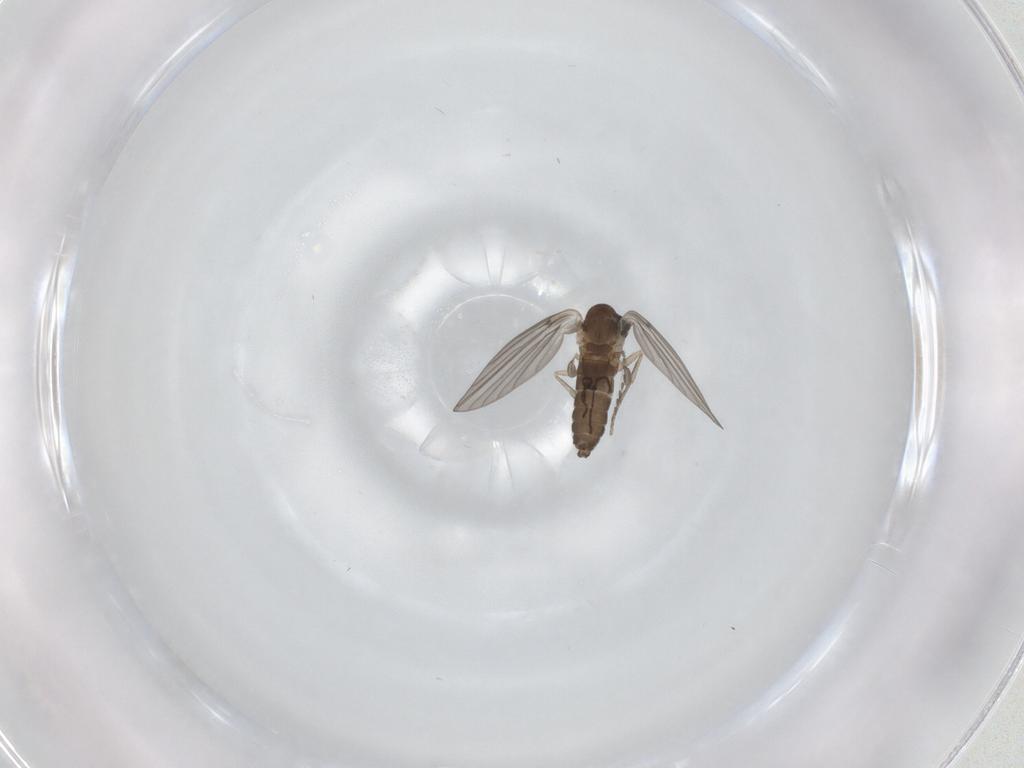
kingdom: Animalia
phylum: Arthropoda
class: Insecta
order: Diptera
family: Psychodidae
